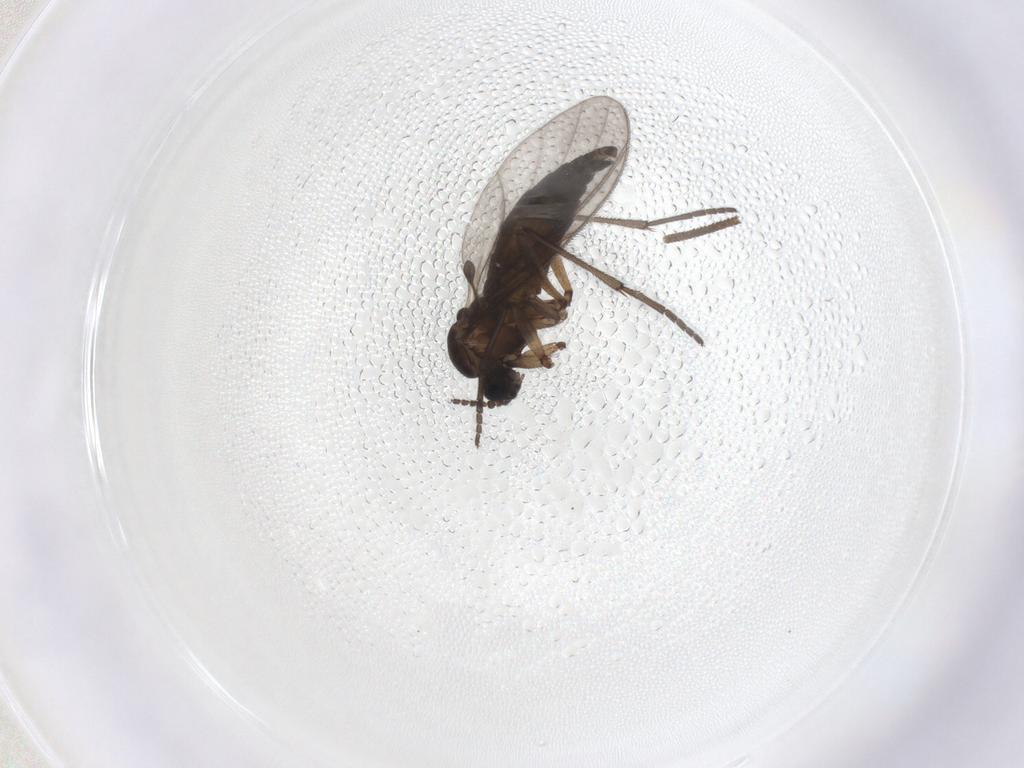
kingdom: Animalia
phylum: Arthropoda
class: Insecta
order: Diptera
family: Sciaridae
